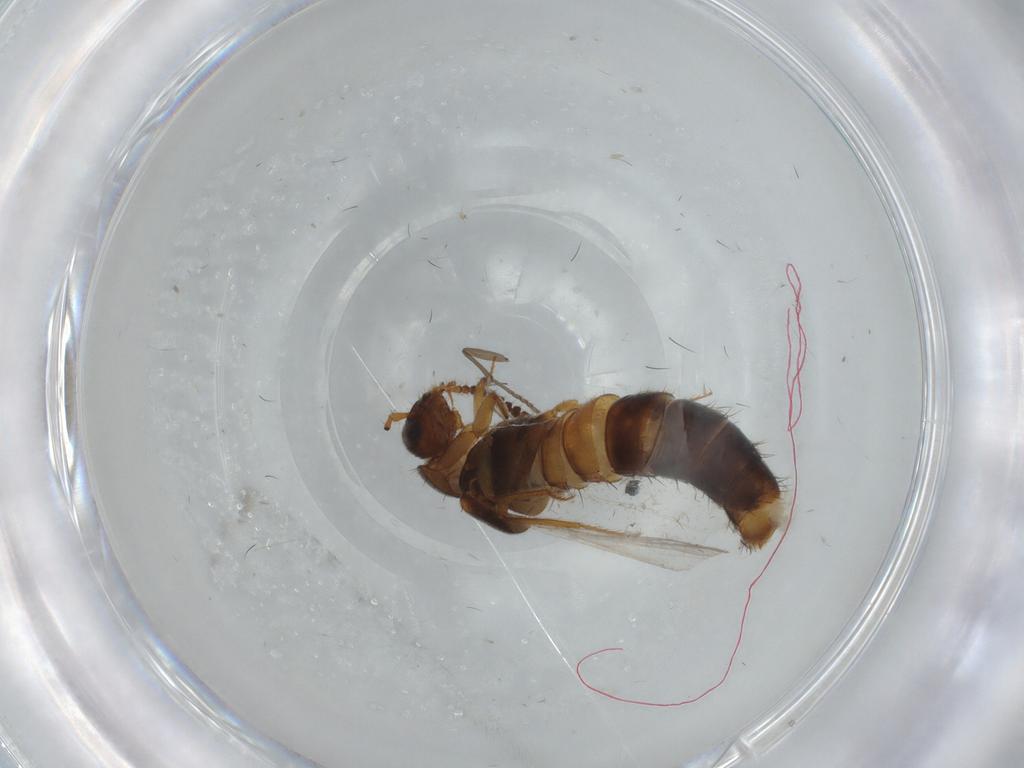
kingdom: Animalia
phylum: Arthropoda
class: Insecta
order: Coleoptera
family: Staphylinidae
